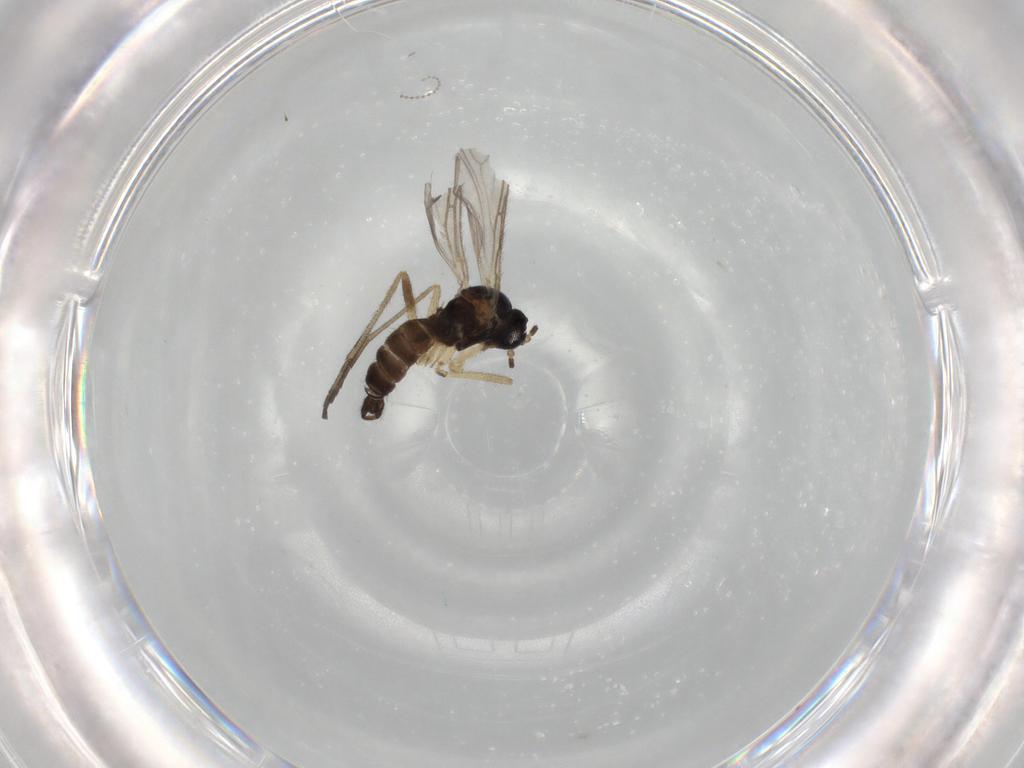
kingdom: Animalia
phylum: Arthropoda
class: Insecta
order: Diptera
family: Sciaridae
